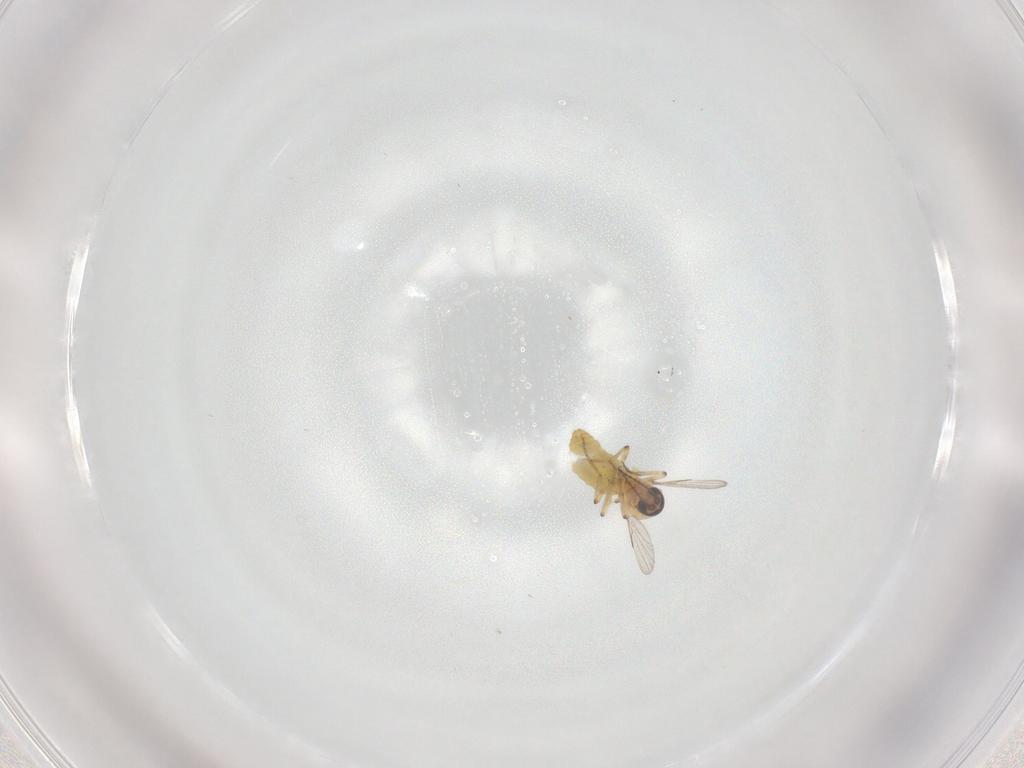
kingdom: Animalia
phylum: Arthropoda
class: Insecta
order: Diptera
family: Ceratopogonidae
